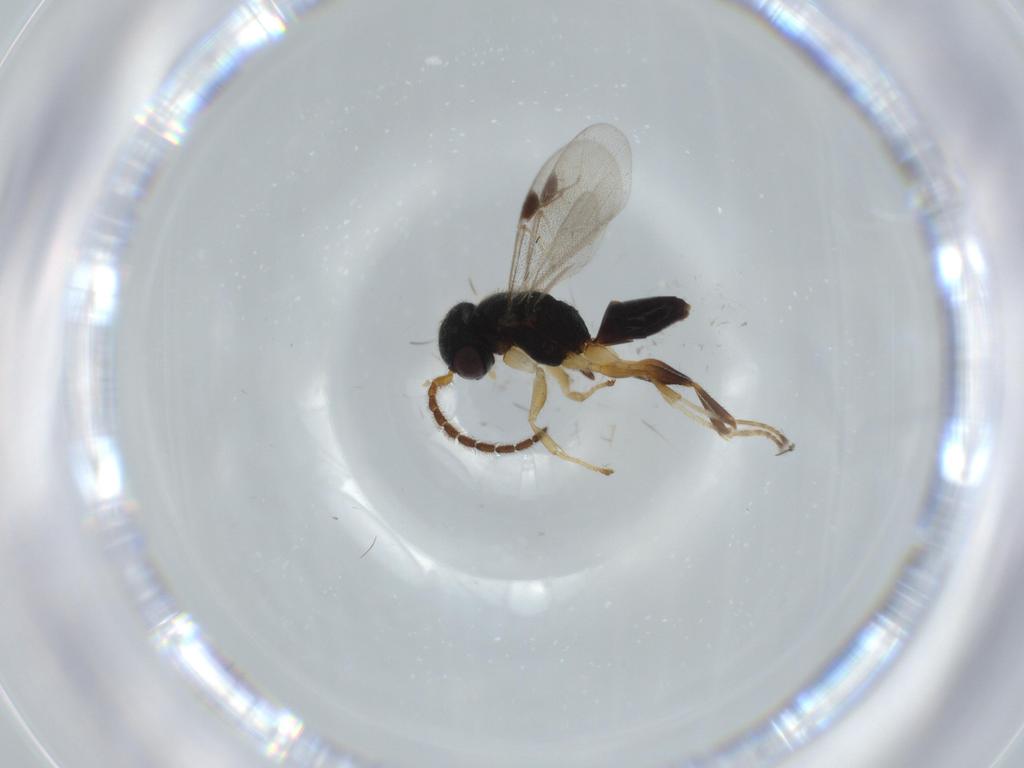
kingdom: Animalia
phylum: Arthropoda
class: Insecta
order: Hymenoptera
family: Dryinidae
